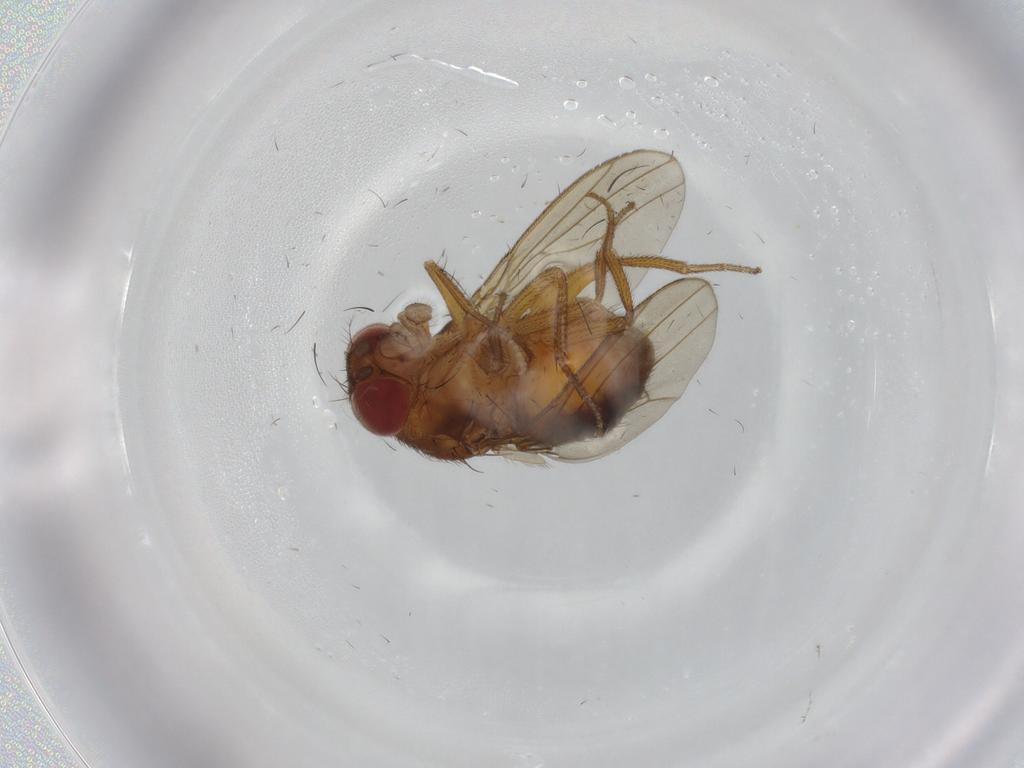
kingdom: Animalia
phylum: Arthropoda
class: Insecta
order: Diptera
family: Drosophilidae
